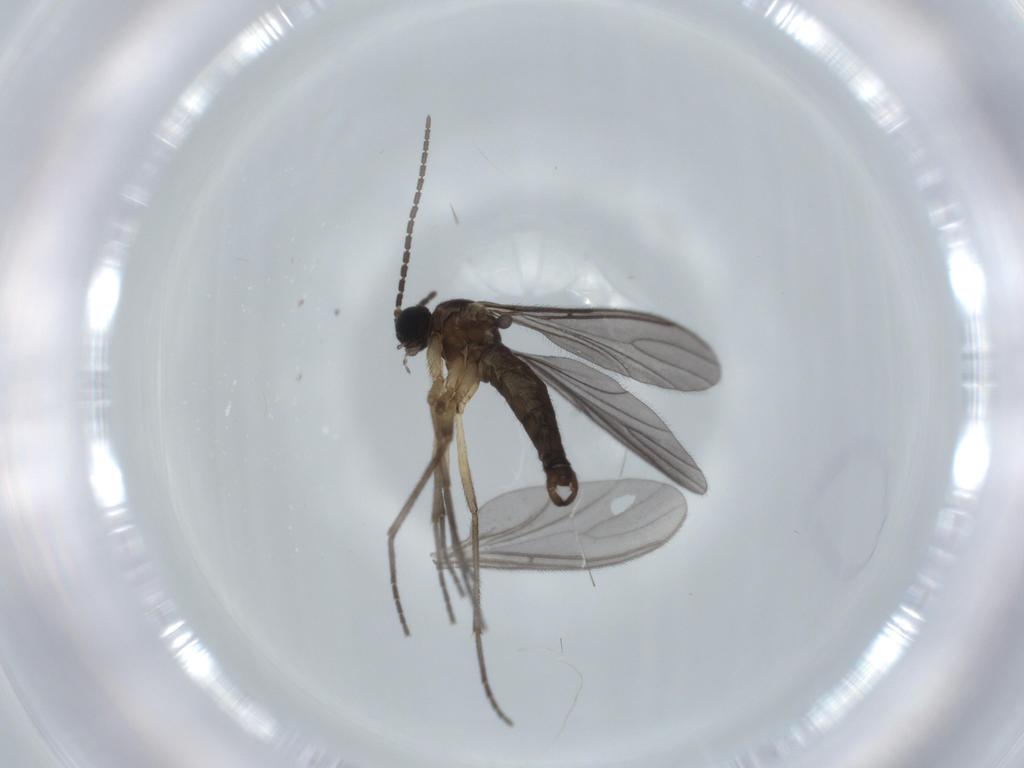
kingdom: Animalia
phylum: Arthropoda
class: Insecta
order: Diptera
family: Sciaridae
